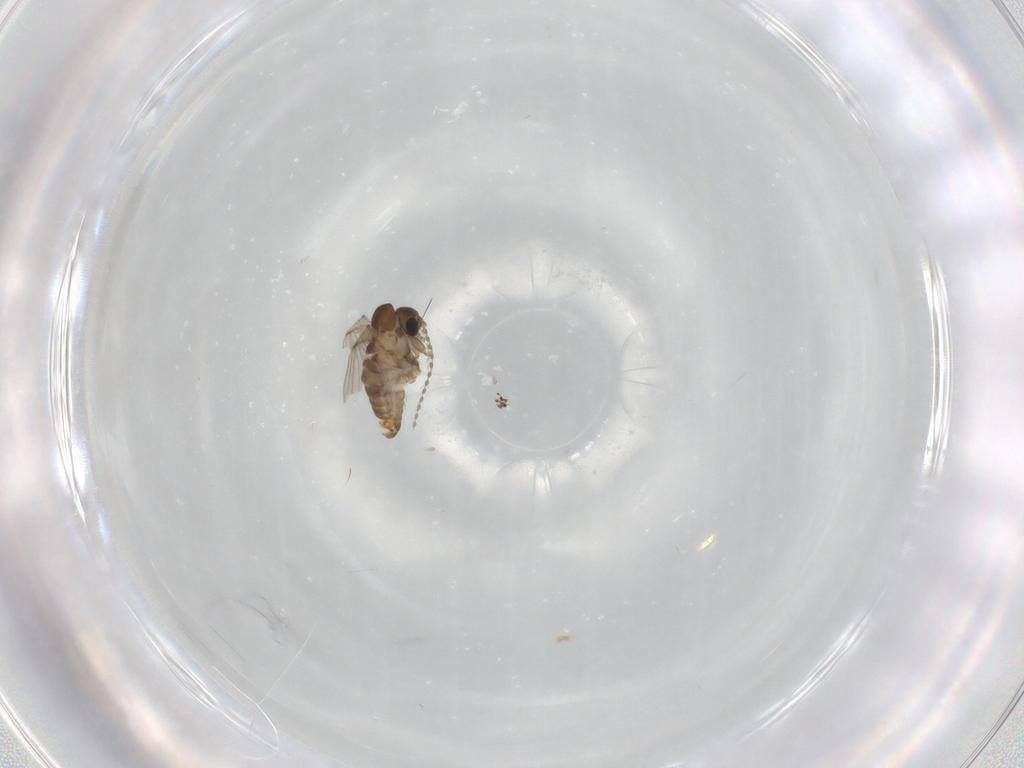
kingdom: Animalia
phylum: Arthropoda
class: Insecta
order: Diptera
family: Chironomidae
